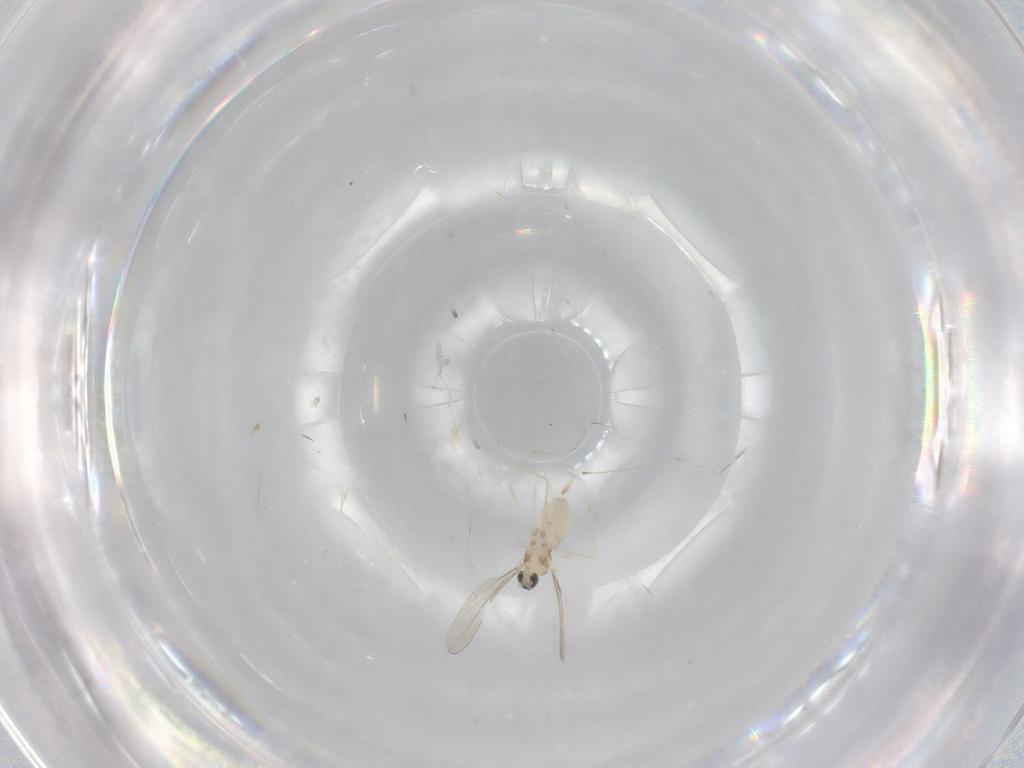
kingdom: Animalia
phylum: Arthropoda
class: Insecta
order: Diptera
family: Cecidomyiidae
